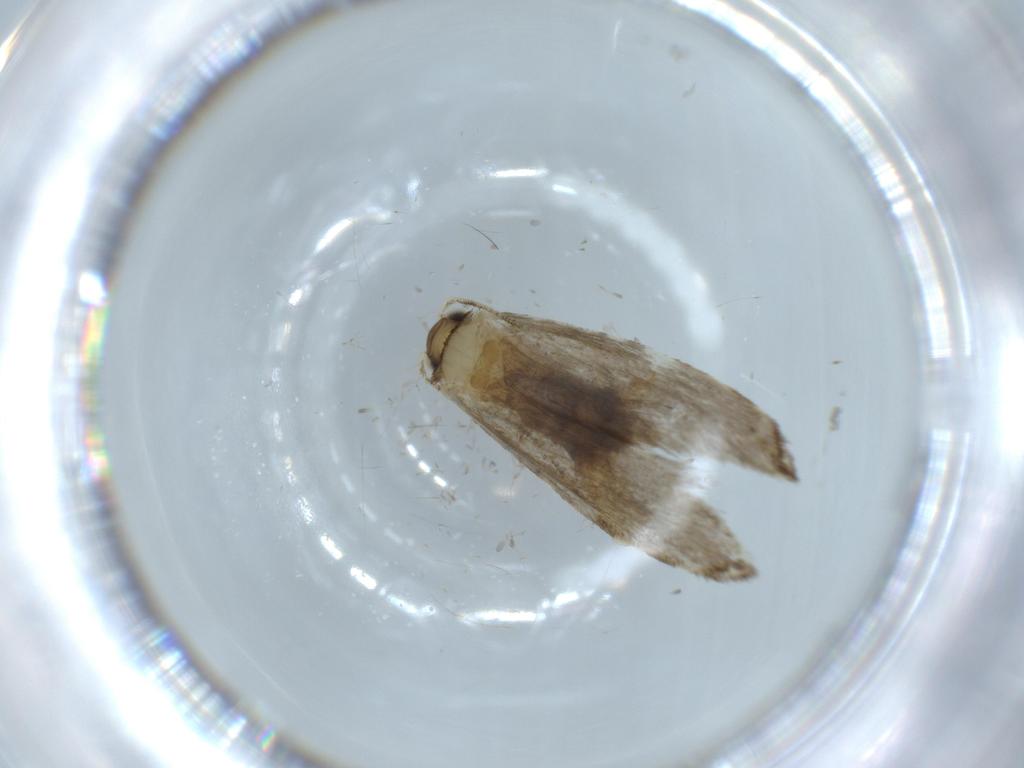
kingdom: Animalia
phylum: Arthropoda
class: Insecta
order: Lepidoptera
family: Tineidae
